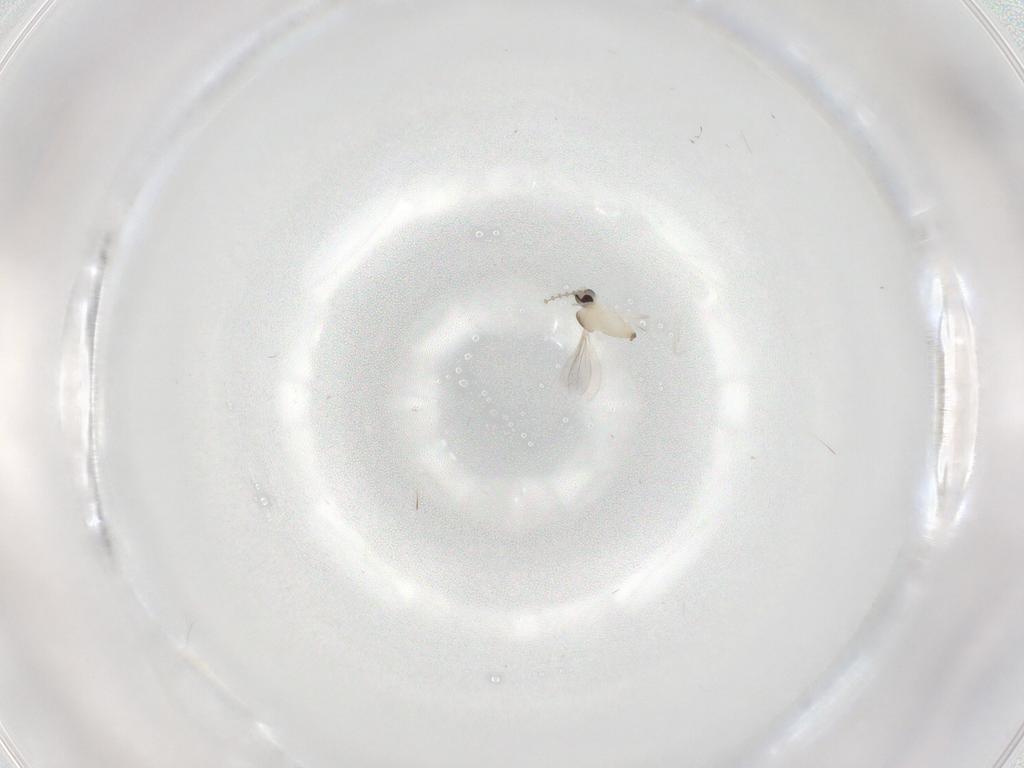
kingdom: Animalia
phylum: Arthropoda
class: Insecta
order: Diptera
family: Cecidomyiidae
